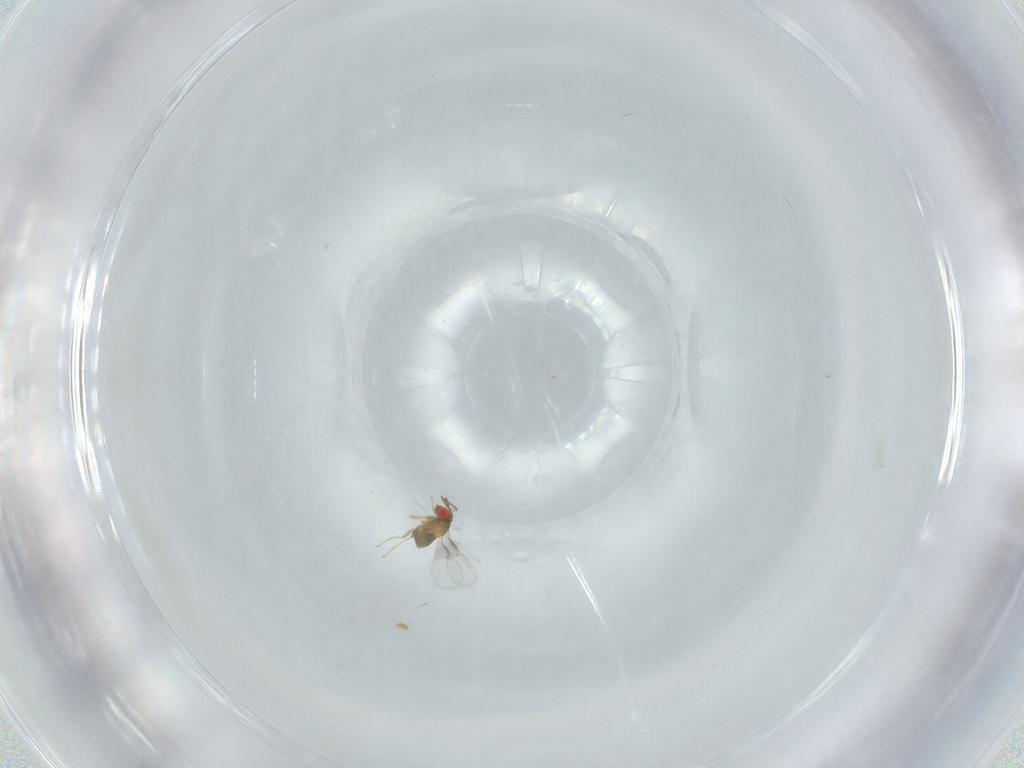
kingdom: Animalia
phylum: Arthropoda
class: Insecta
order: Hymenoptera
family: Trichogrammatidae
